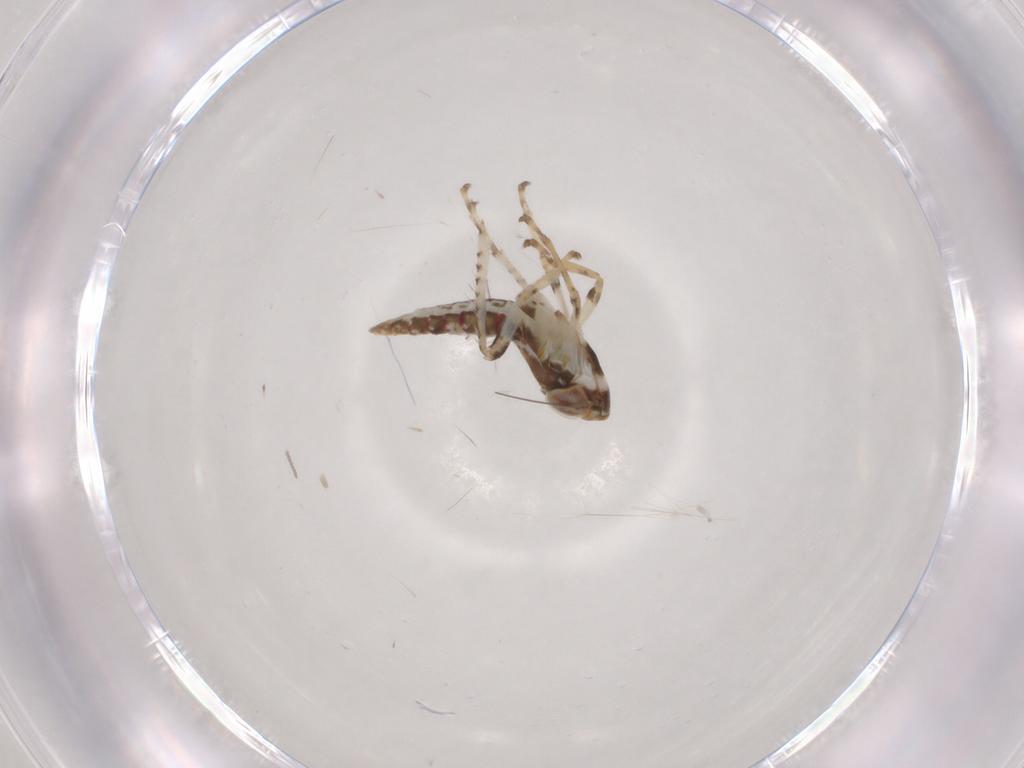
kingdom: Animalia
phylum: Arthropoda
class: Insecta
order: Hemiptera
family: Cicadellidae
